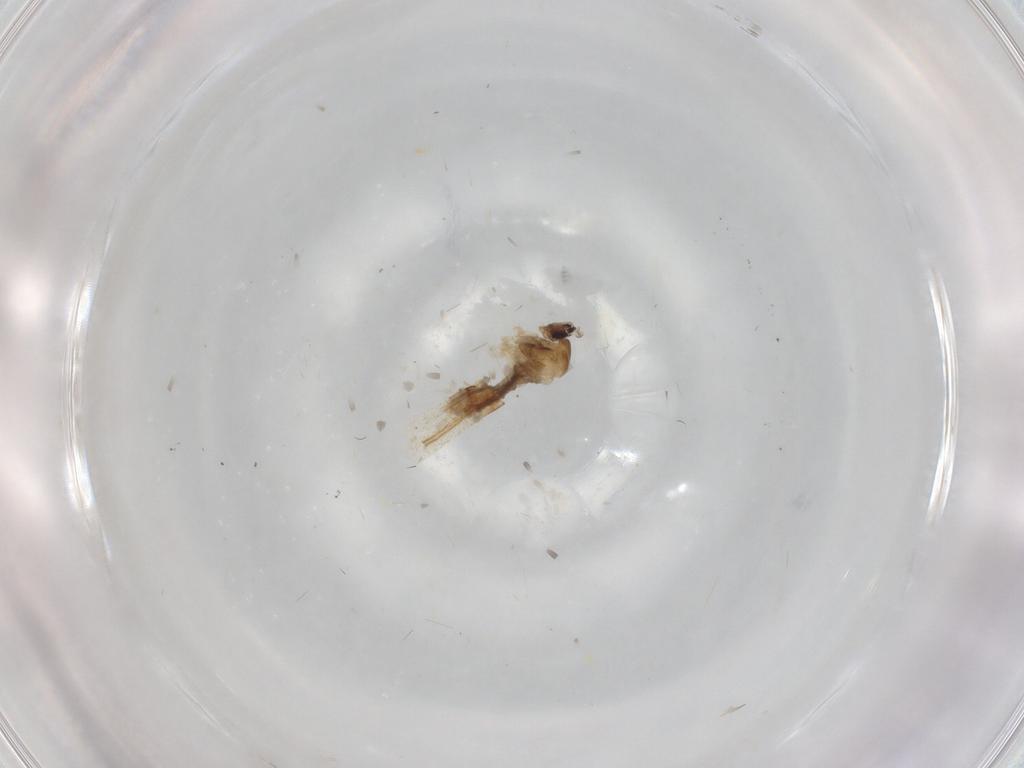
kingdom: Animalia
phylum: Arthropoda
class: Insecta
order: Diptera
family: Cecidomyiidae
